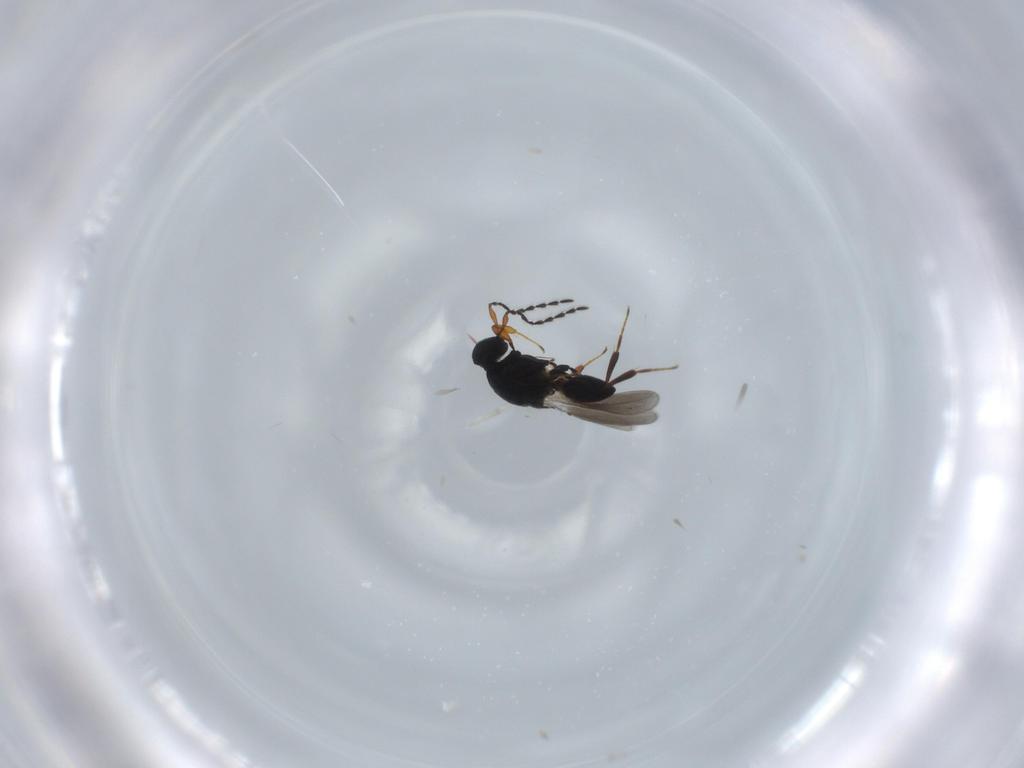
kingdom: Animalia
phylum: Arthropoda
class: Insecta
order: Hymenoptera
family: Platygastridae
